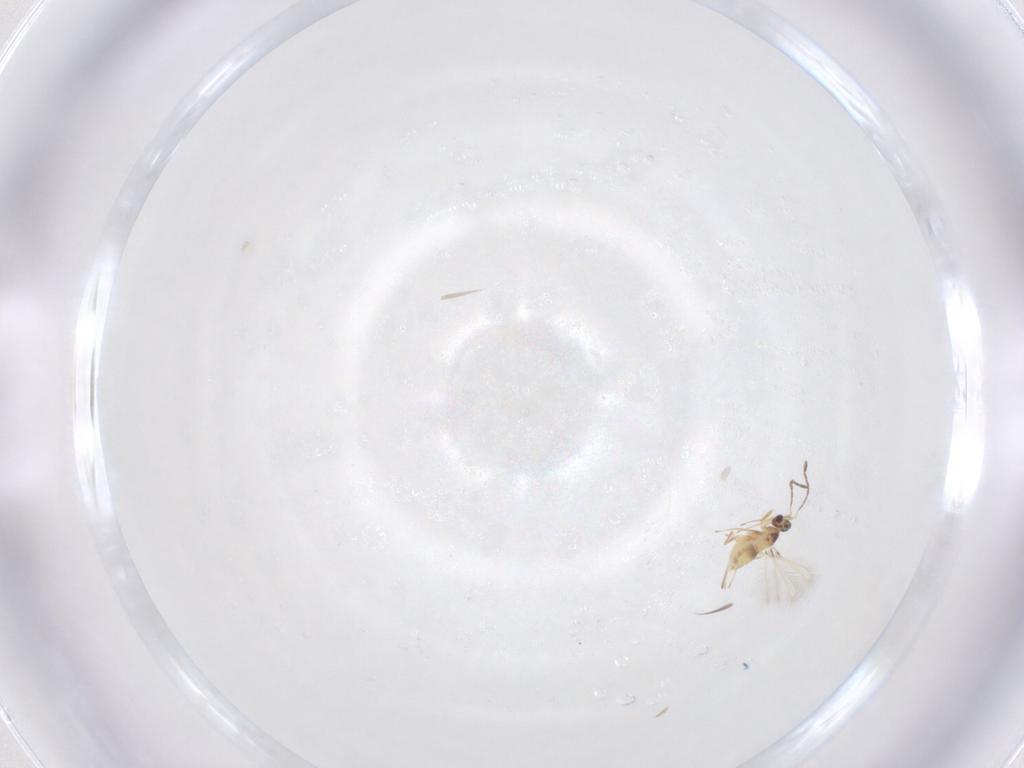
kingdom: Animalia
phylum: Arthropoda
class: Insecta
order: Hymenoptera
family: Mymaridae
